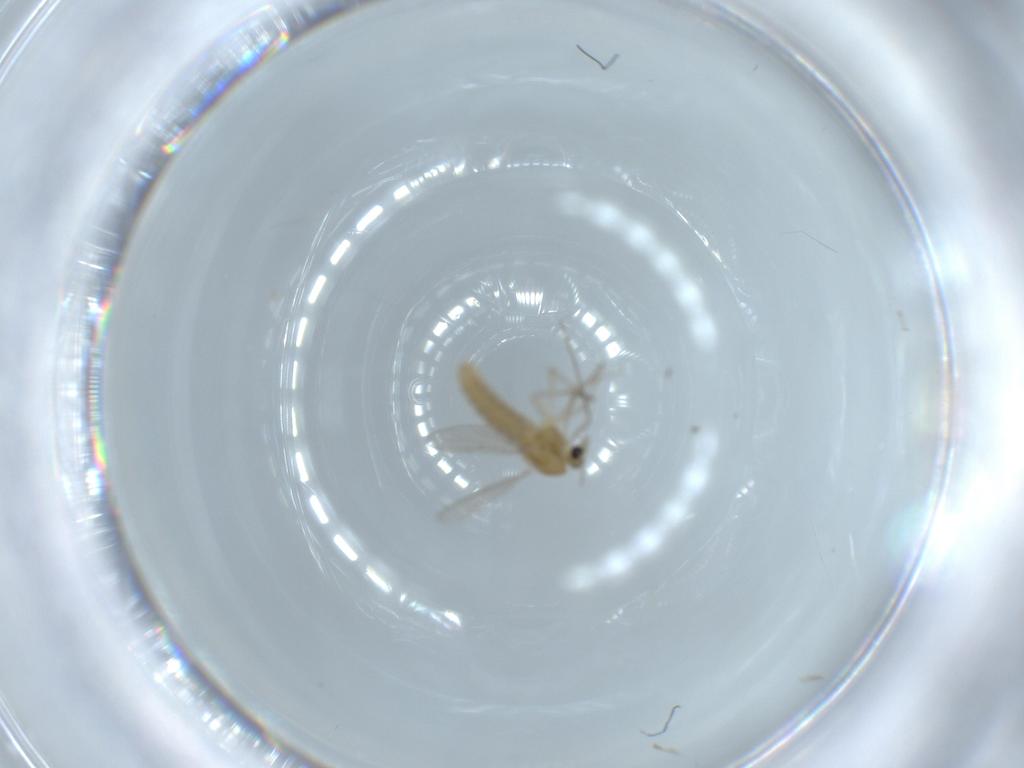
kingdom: Animalia
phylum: Arthropoda
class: Insecta
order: Diptera
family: Chironomidae
